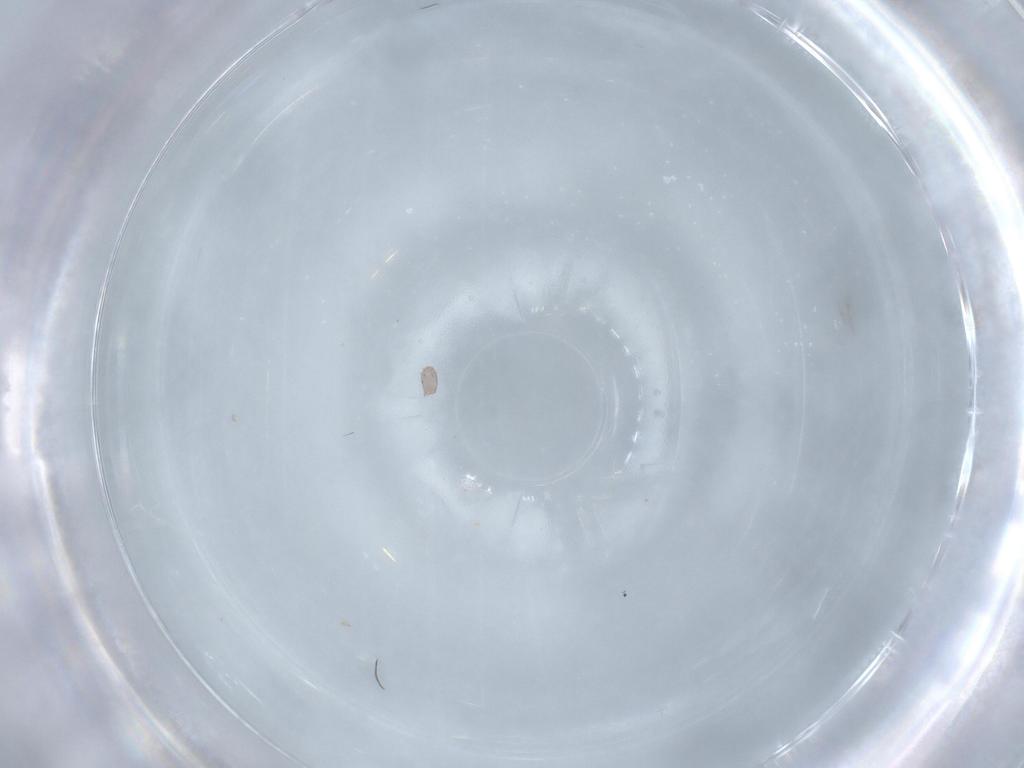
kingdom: Animalia
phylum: Arthropoda
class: Arachnida
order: Mesostigmata
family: Melicharidae
